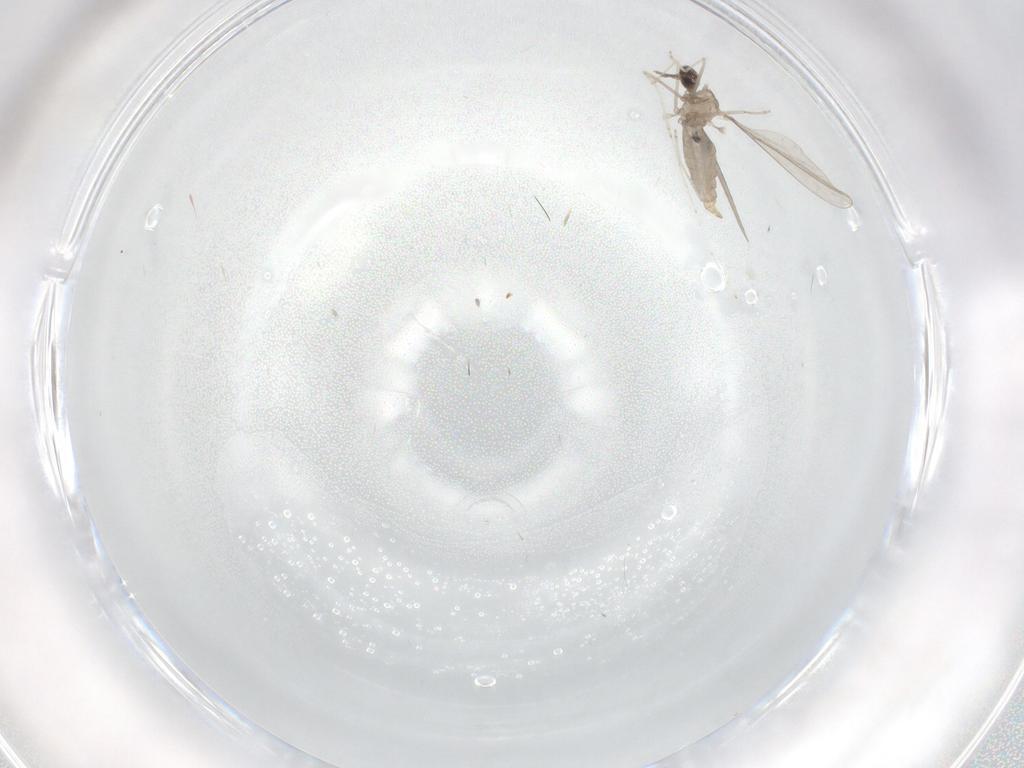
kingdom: Animalia
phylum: Arthropoda
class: Insecta
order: Diptera
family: Cecidomyiidae
